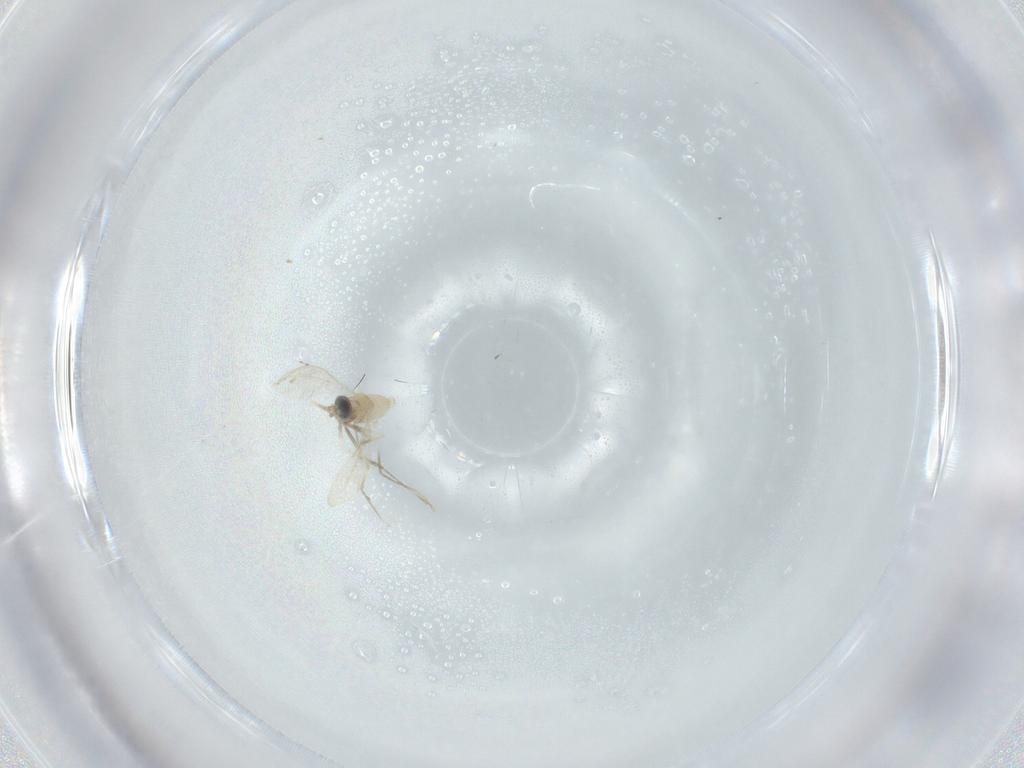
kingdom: Animalia
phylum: Arthropoda
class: Insecta
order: Diptera
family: Cecidomyiidae
